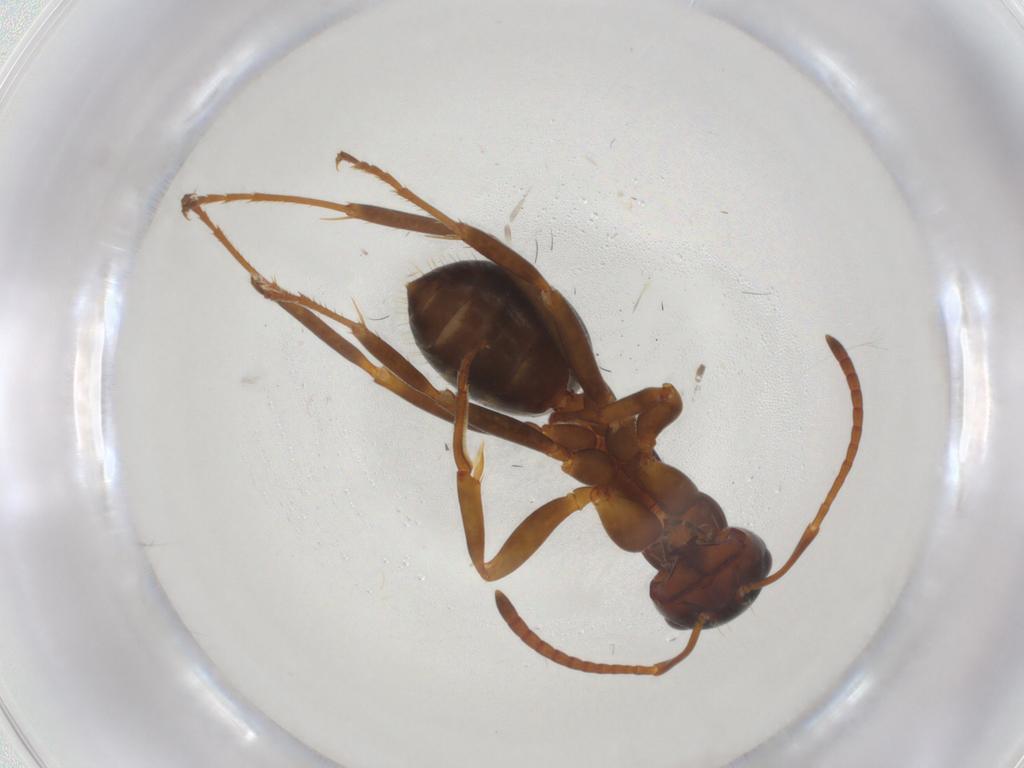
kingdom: Animalia
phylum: Arthropoda
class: Insecta
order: Hymenoptera
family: Formicidae
